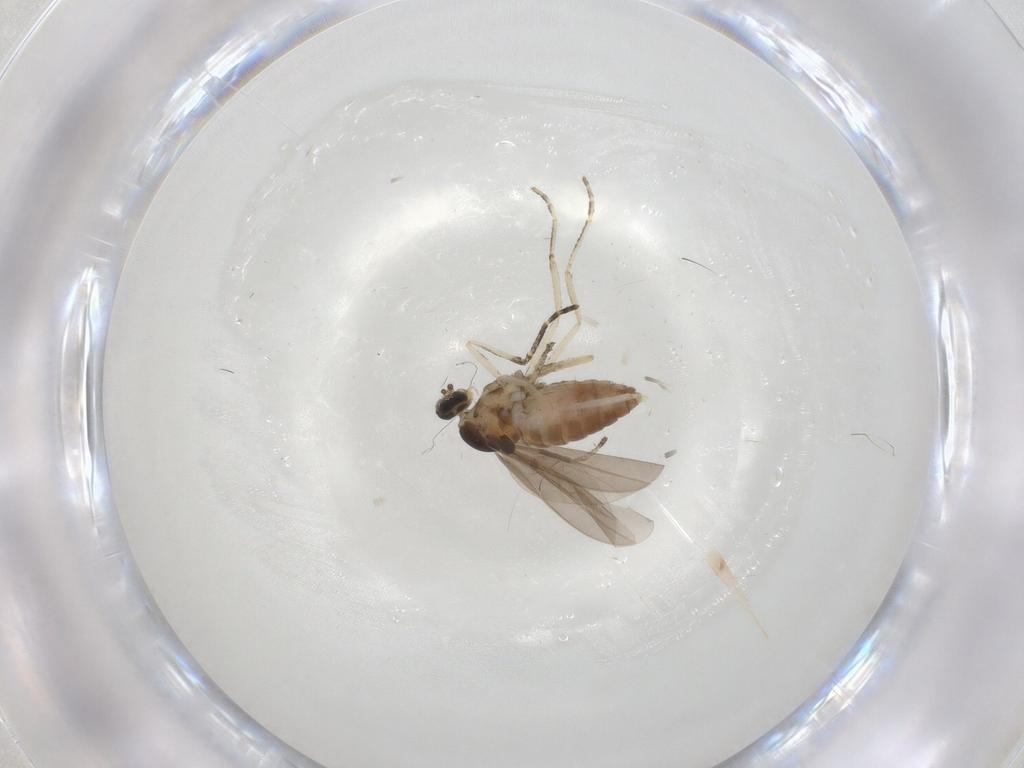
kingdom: Animalia
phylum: Arthropoda
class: Insecta
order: Diptera
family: Cecidomyiidae
